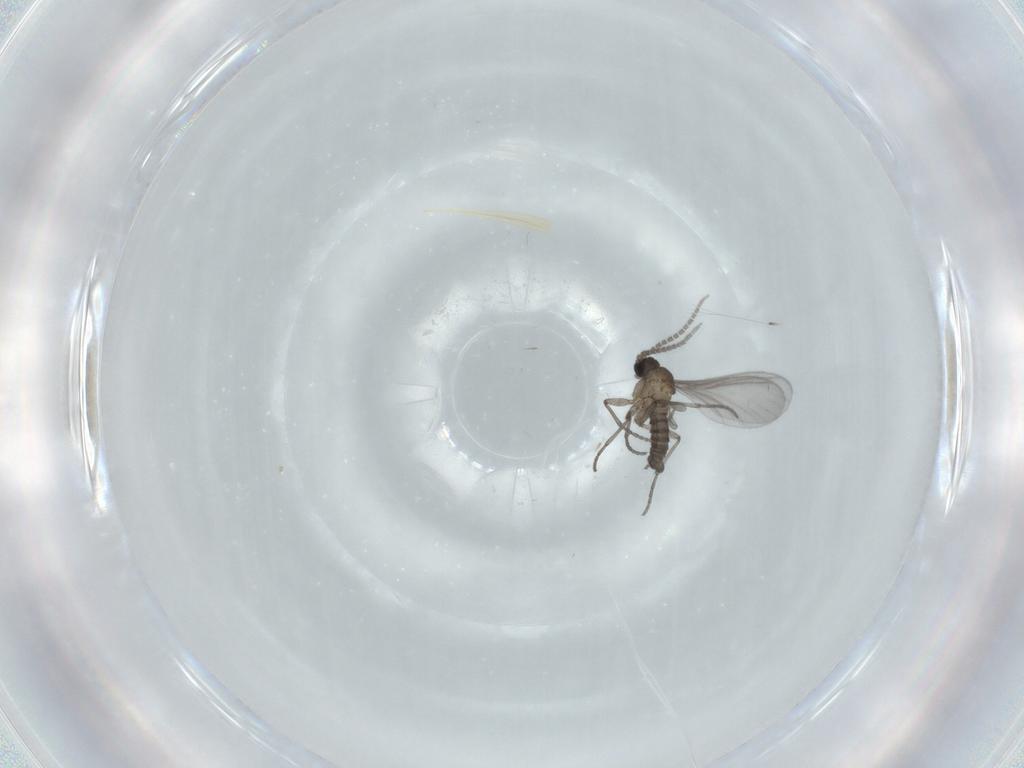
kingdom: Animalia
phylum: Arthropoda
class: Insecta
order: Diptera
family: Sciaridae
